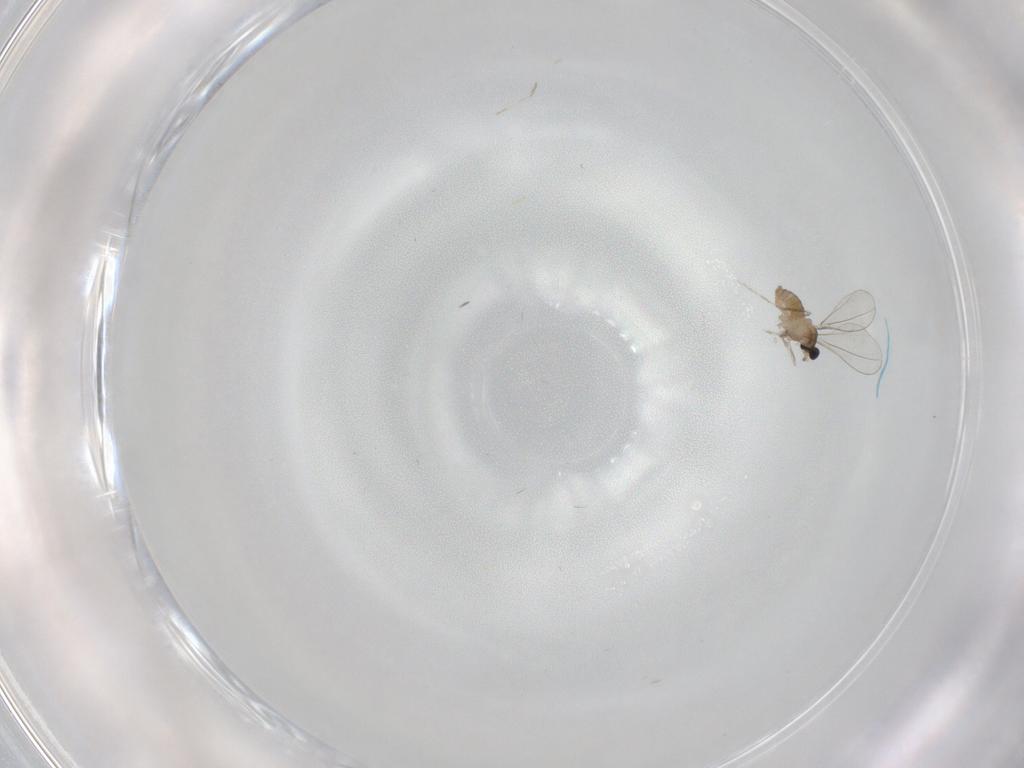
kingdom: Animalia
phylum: Arthropoda
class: Insecta
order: Diptera
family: Cecidomyiidae
